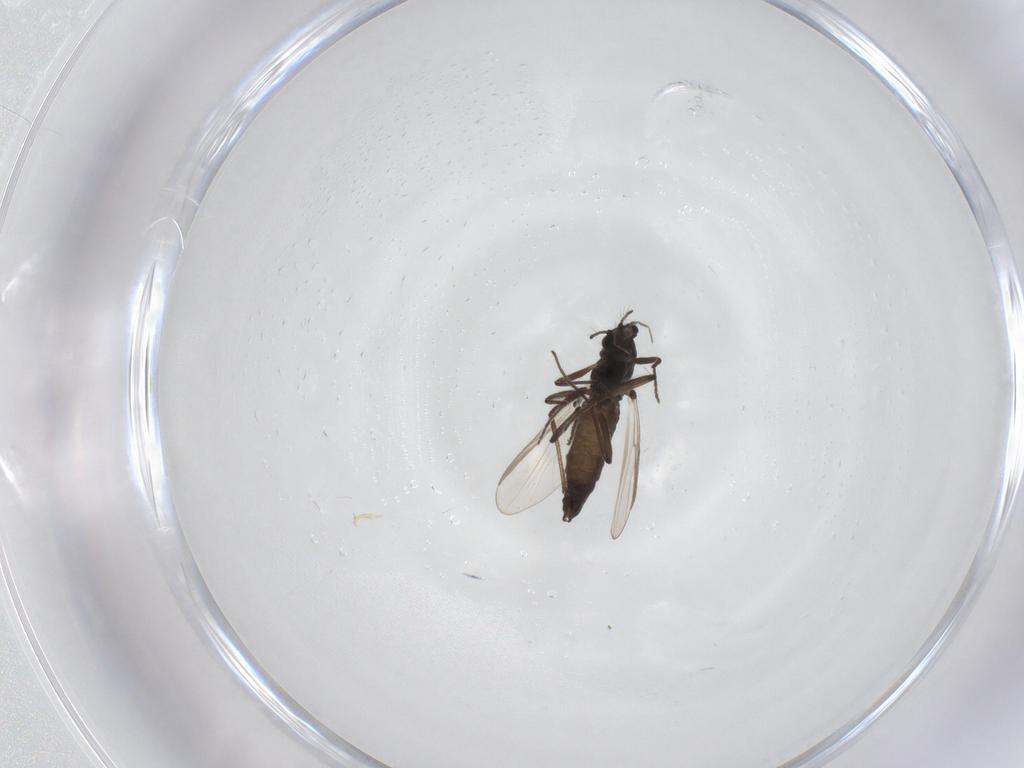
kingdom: Animalia
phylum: Arthropoda
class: Insecta
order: Diptera
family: Chironomidae
